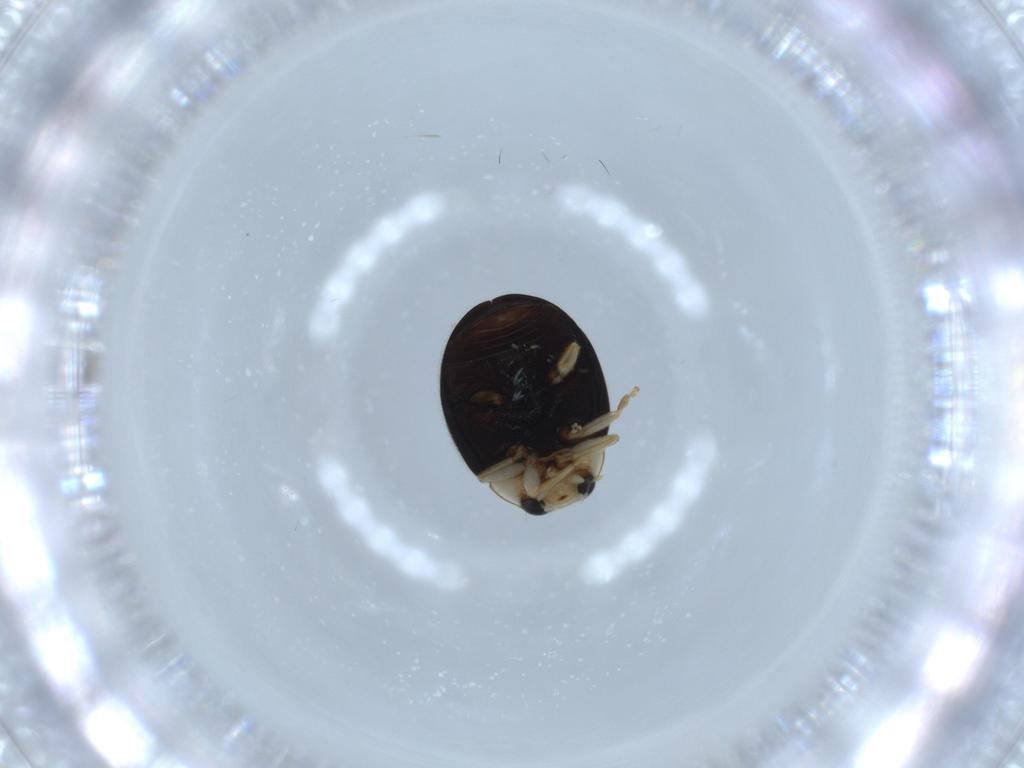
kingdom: Animalia
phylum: Arthropoda
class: Insecta
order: Coleoptera
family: Coccinellidae
